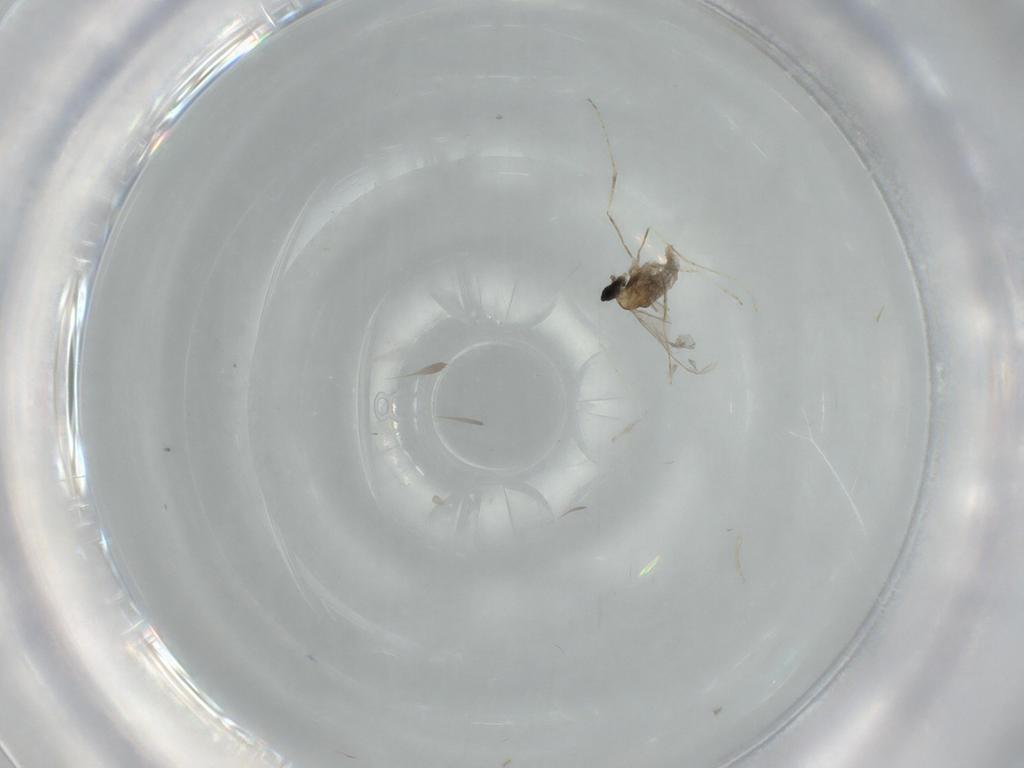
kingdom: Animalia
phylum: Arthropoda
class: Insecta
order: Diptera
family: Cecidomyiidae
